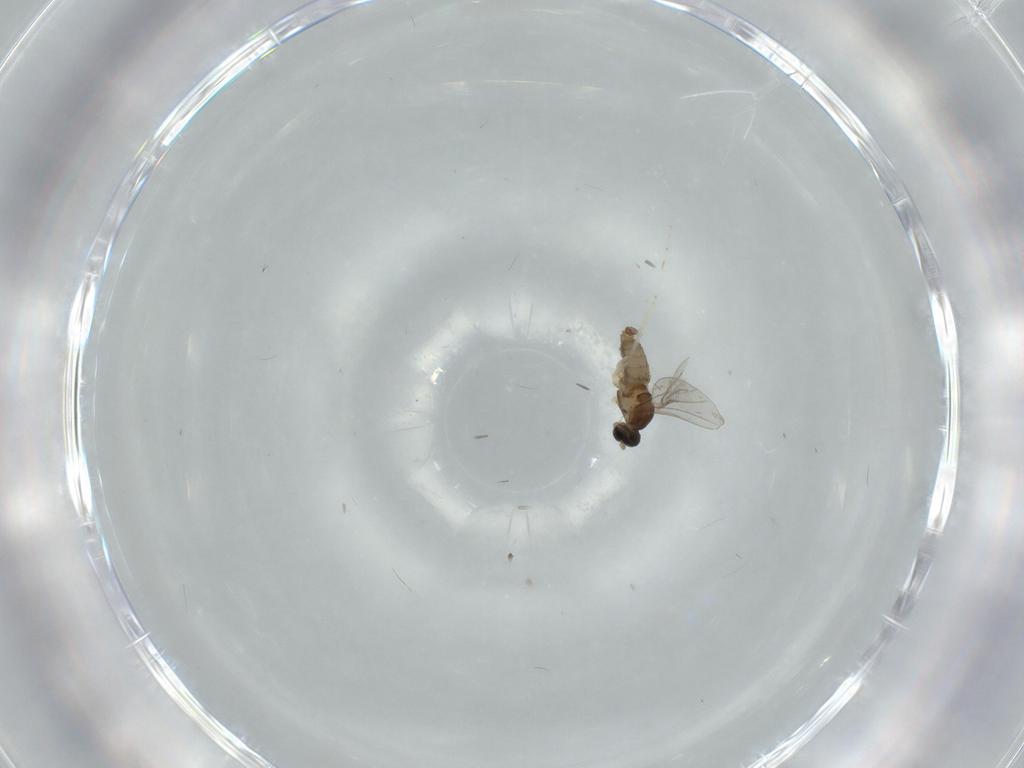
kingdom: Animalia
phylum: Arthropoda
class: Insecta
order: Diptera
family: Cecidomyiidae
